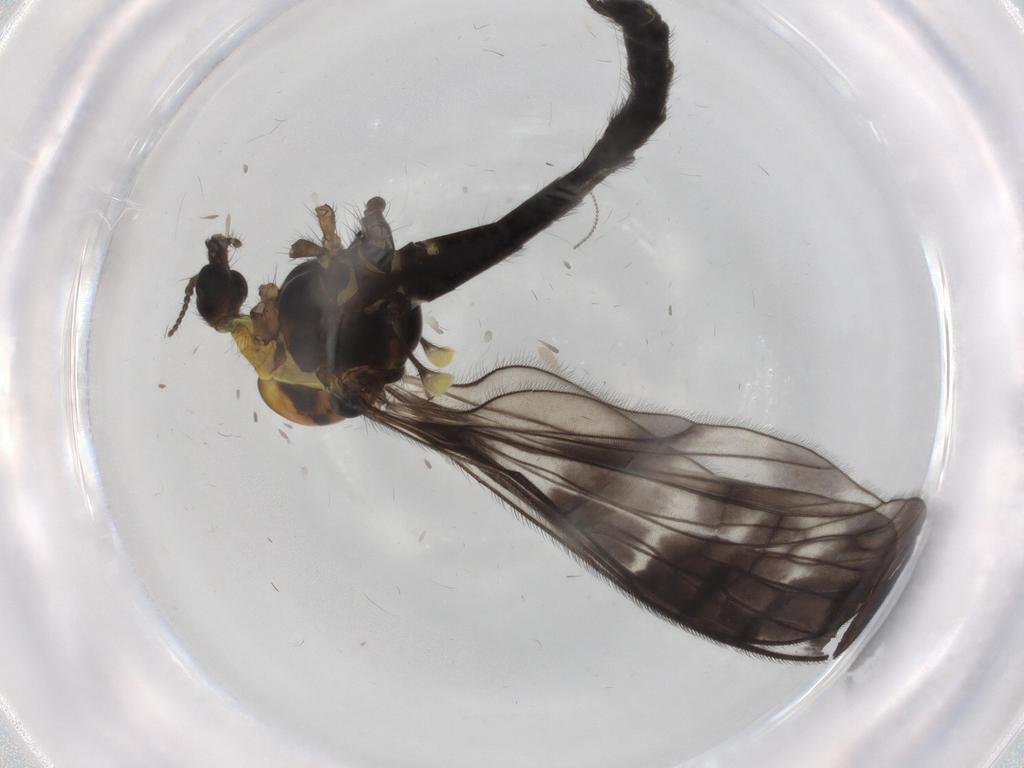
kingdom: Animalia
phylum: Arthropoda
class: Insecta
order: Diptera
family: Limoniidae
